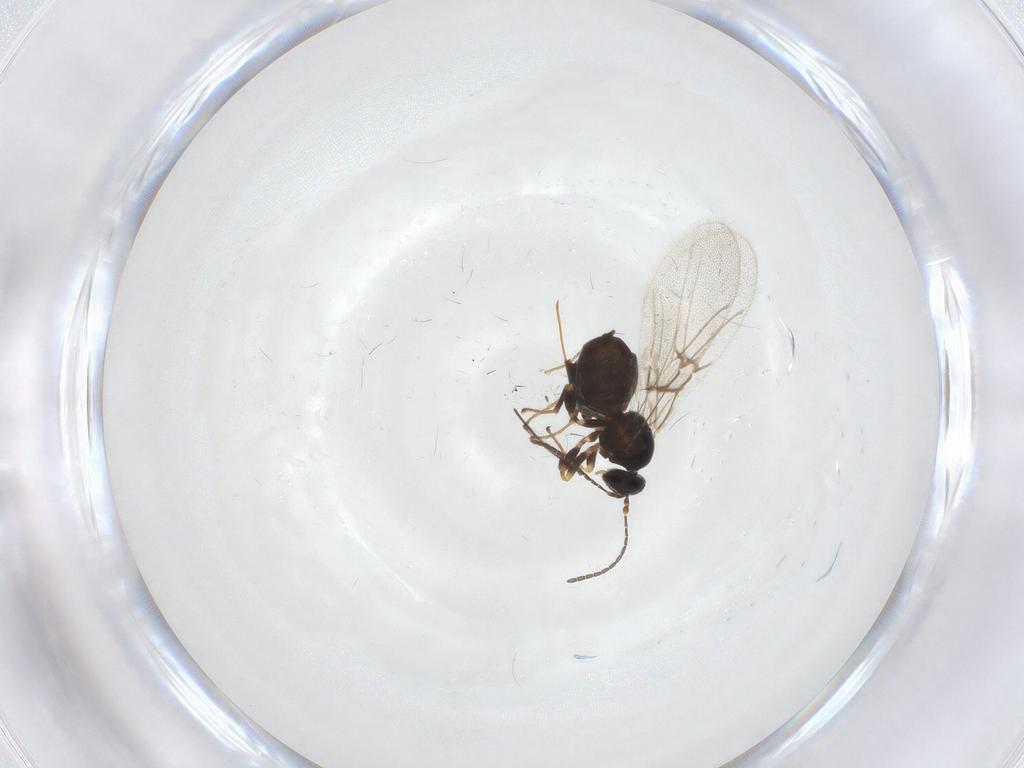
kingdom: Animalia
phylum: Arthropoda
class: Insecta
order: Hymenoptera
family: Cynipidae
